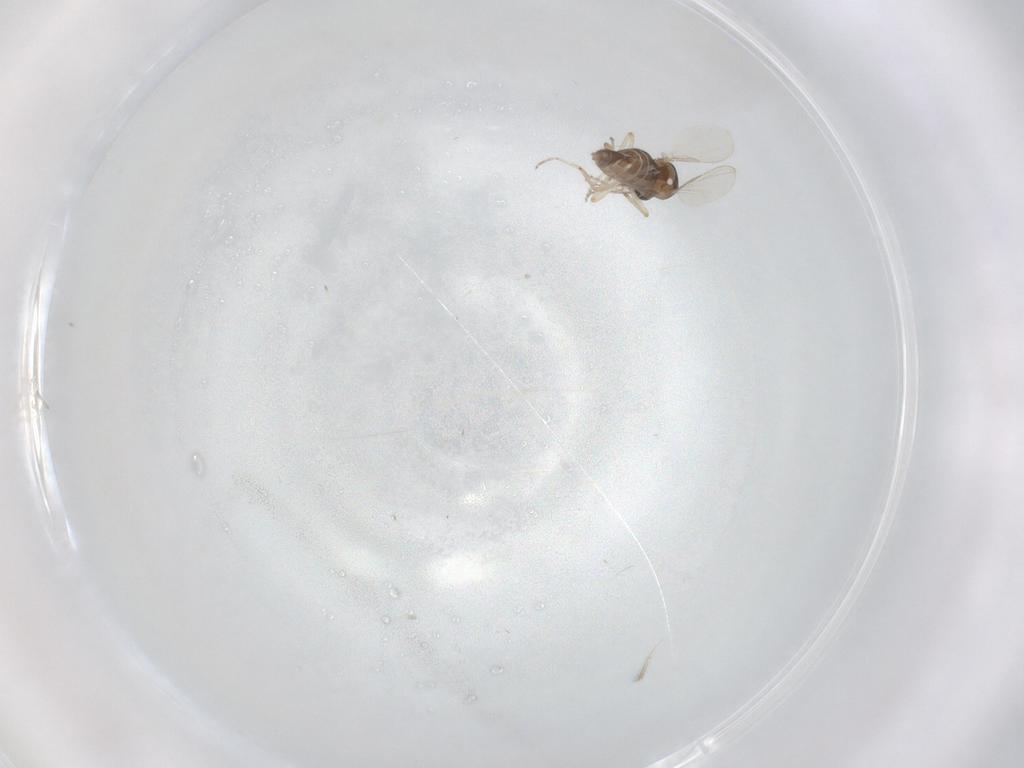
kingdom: Animalia
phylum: Arthropoda
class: Insecta
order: Diptera
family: Ceratopogonidae
